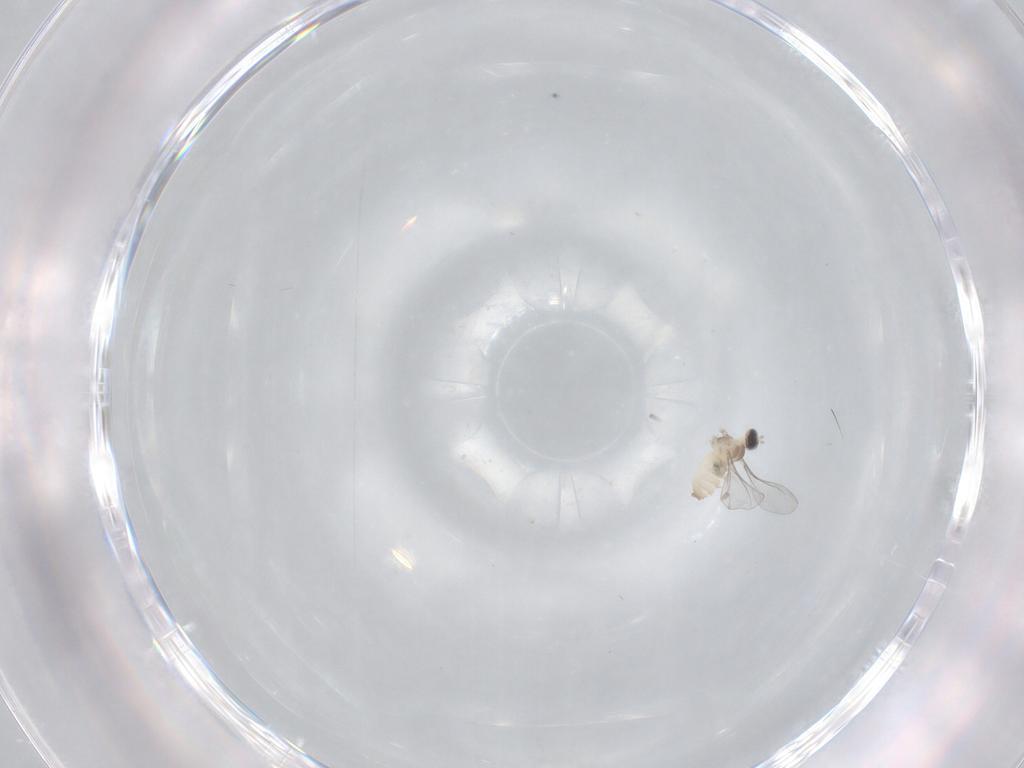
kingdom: Animalia
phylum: Arthropoda
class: Insecta
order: Diptera
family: Cecidomyiidae
